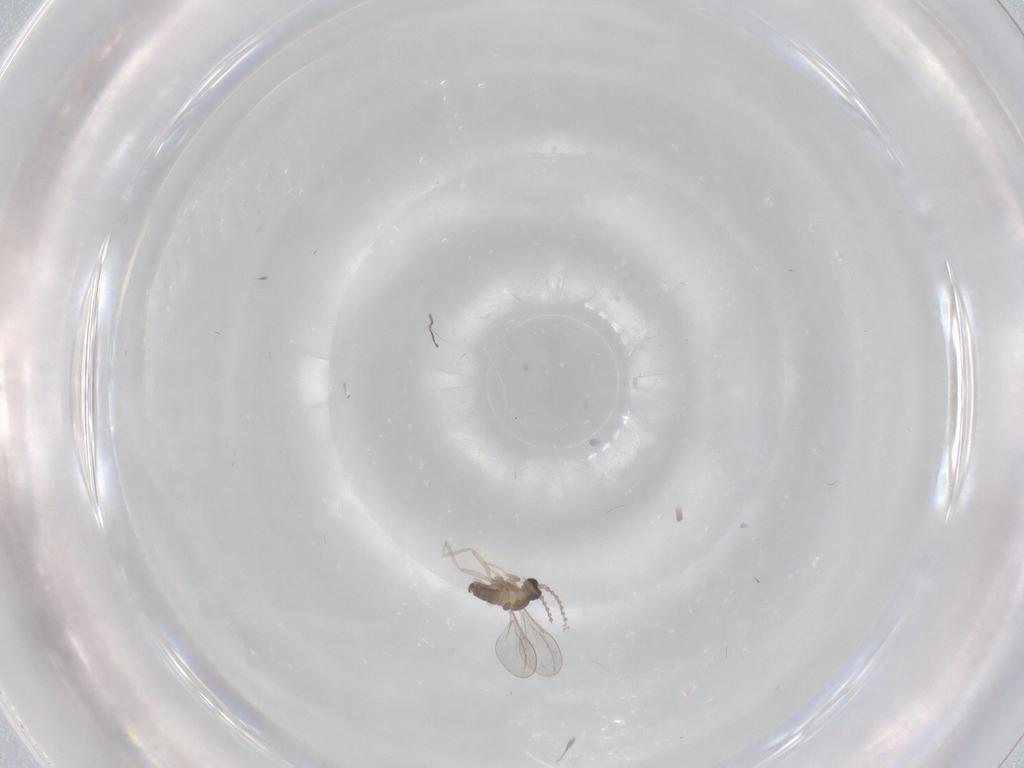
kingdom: Animalia
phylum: Arthropoda
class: Insecta
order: Diptera
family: Cecidomyiidae
